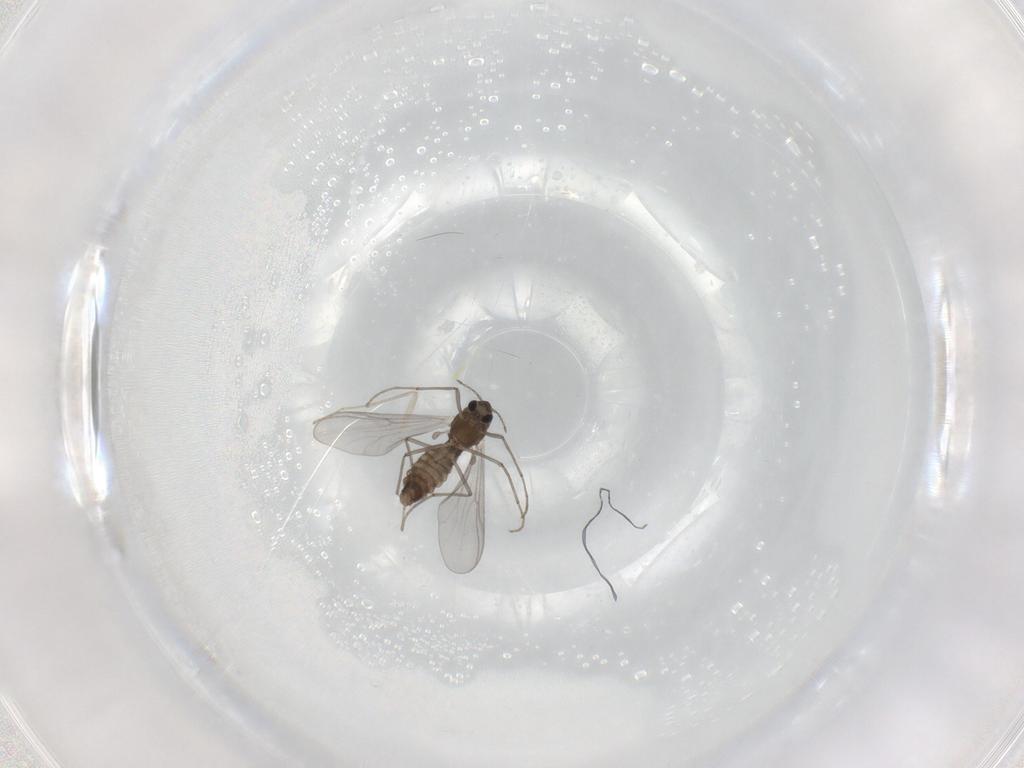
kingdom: Animalia
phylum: Arthropoda
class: Insecta
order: Diptera
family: Chironomidae
